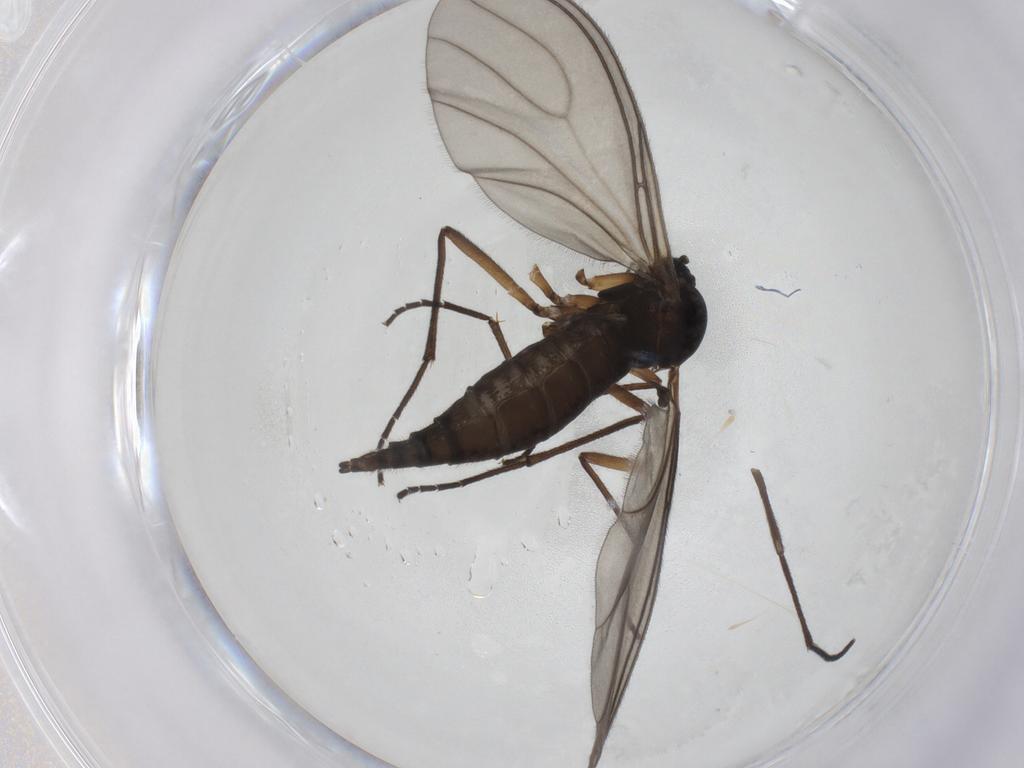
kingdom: Animalia
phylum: Arthropoda
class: Insecta
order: Diptera
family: Sciaridae
